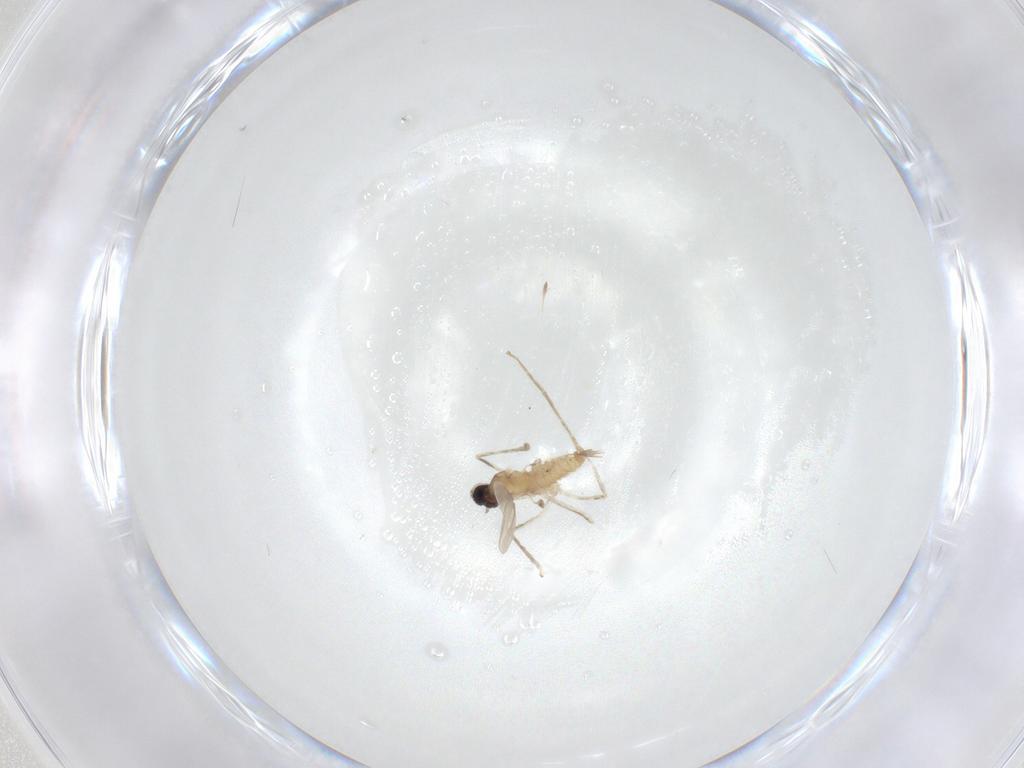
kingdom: Animalia
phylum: Arthropoda
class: Insecta
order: Diptera
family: Cecidomyiidae
